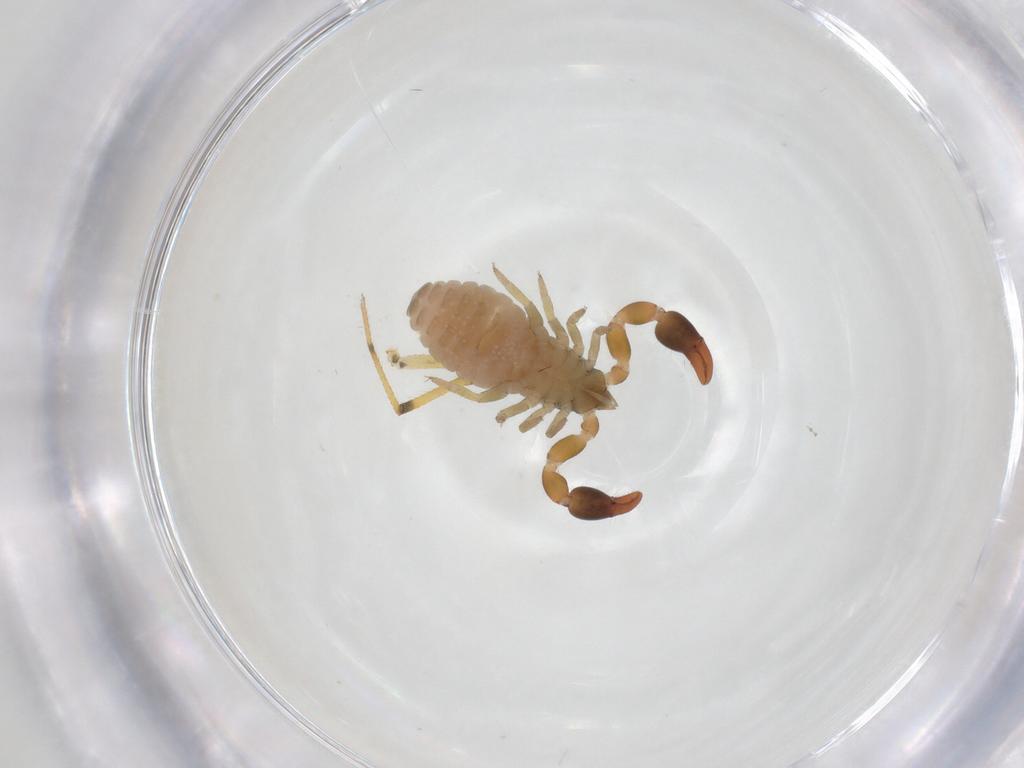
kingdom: Animalia
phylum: Arthropoda
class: Arachnida
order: Pseudoscorpiones
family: Chernetidae
